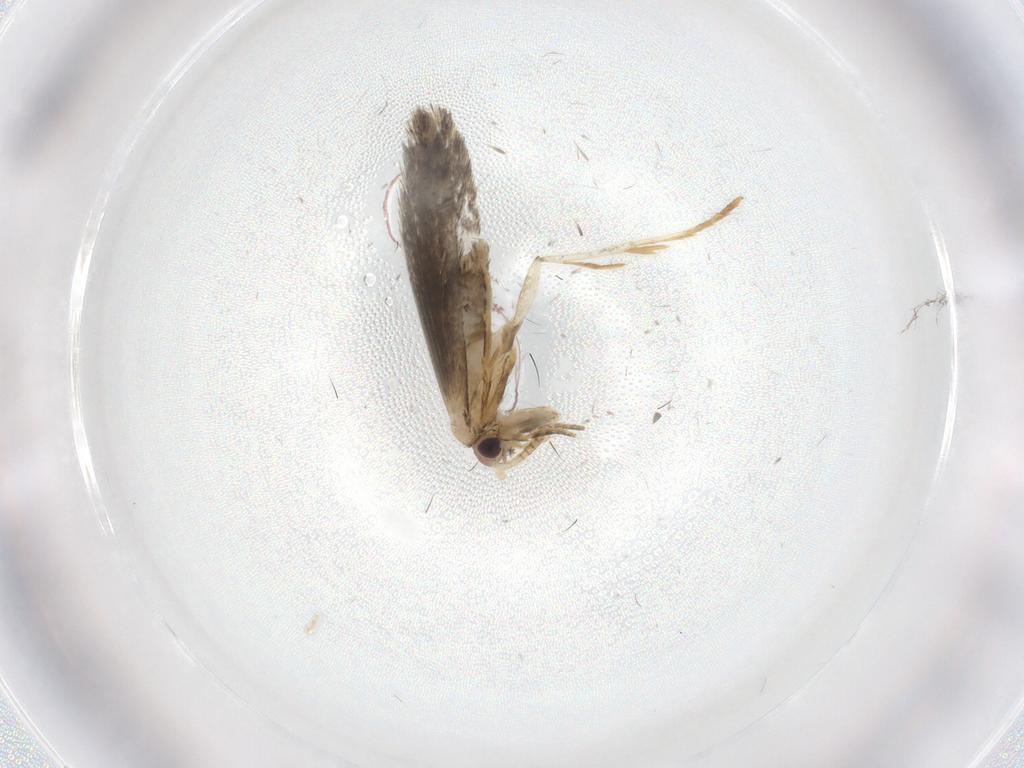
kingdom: Animalia
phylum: Arthropoda
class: Insecta
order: Lepidoptera
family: Tineidae
